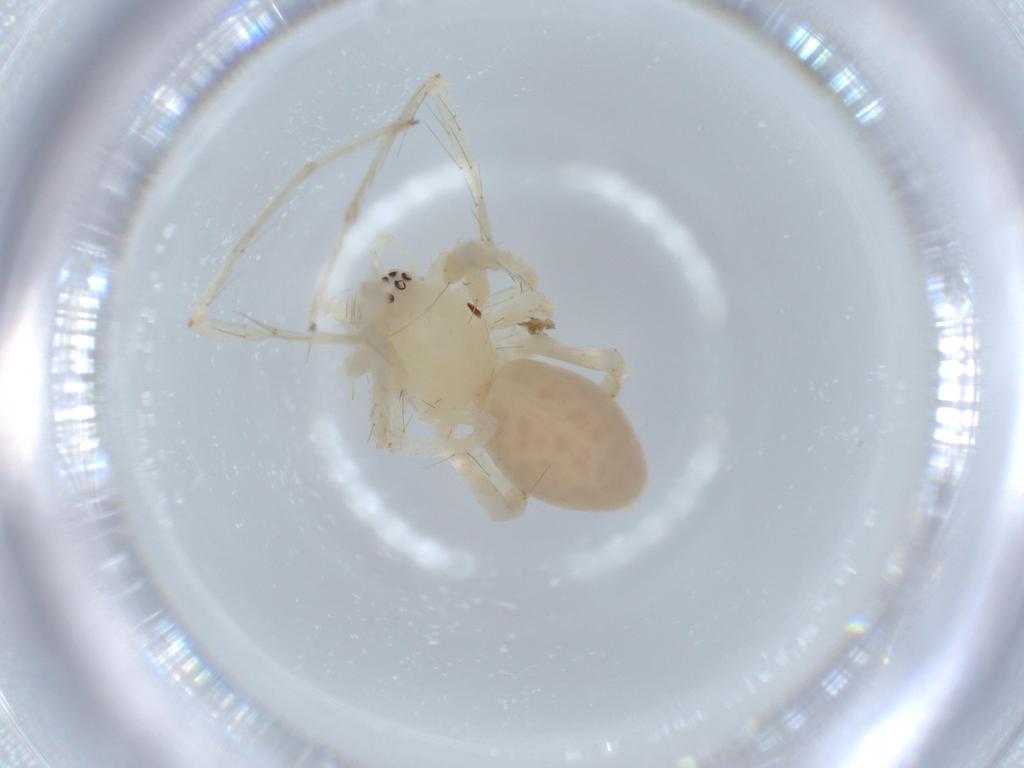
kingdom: Animalia
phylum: Arthropoda
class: Arachnida
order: Araneae
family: Anyphaenidae
